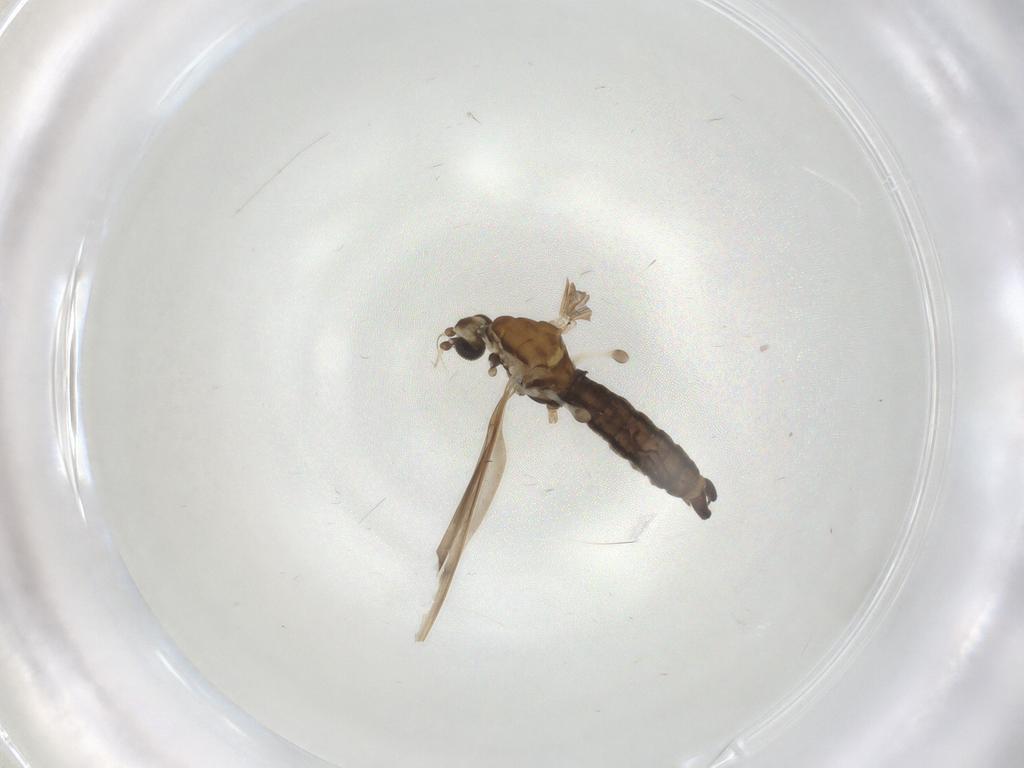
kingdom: Animalia
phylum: Arthropoda
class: Insecta
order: Diptera
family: Limoniidae
